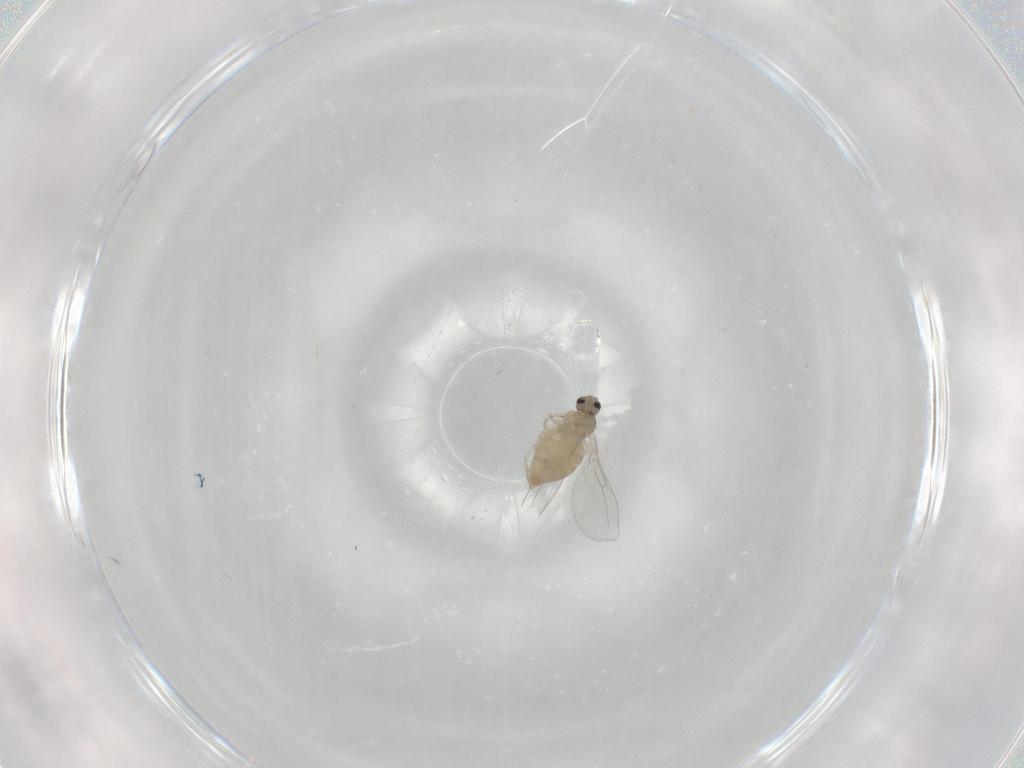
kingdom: Animalia
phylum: Arthropoda
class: Insecta
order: Diptera
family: Cecidomyiidae
